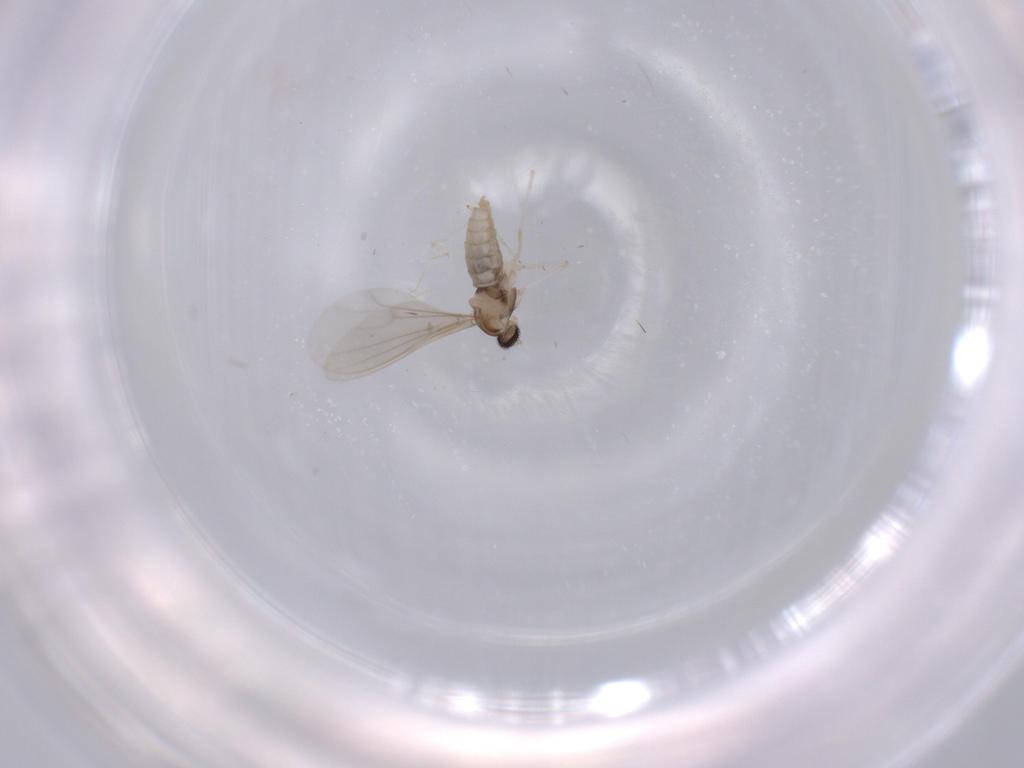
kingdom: Animalia
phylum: Arthropoda
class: Insecta
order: Diptera
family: Cecidomyiidae
